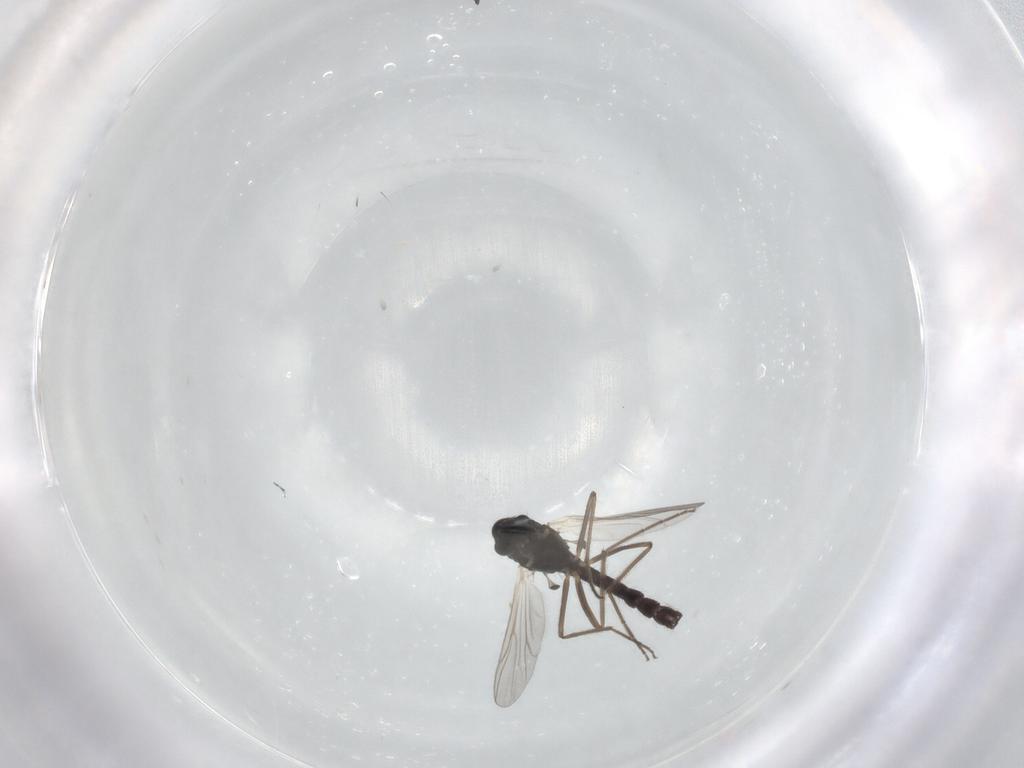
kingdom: Animalia
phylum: Arthropoda
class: Insecta
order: Diptera
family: Chironomidae
